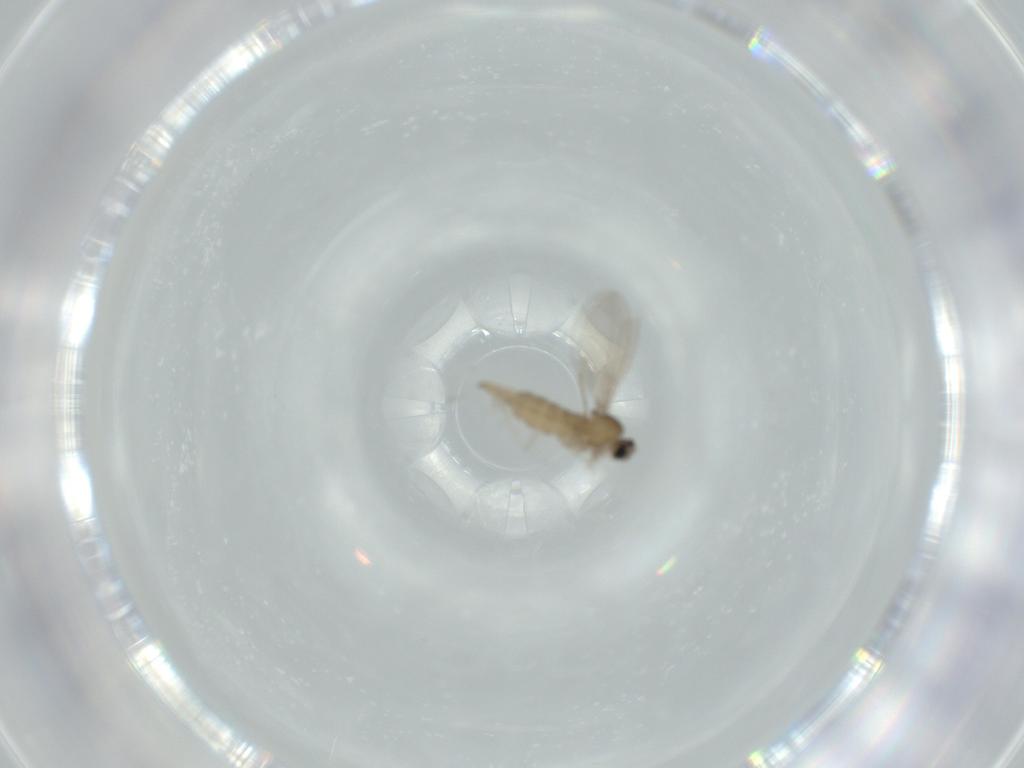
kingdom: Animalia
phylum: Arthropoda
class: Insecta
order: Diptera
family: Cecidomyiidae
